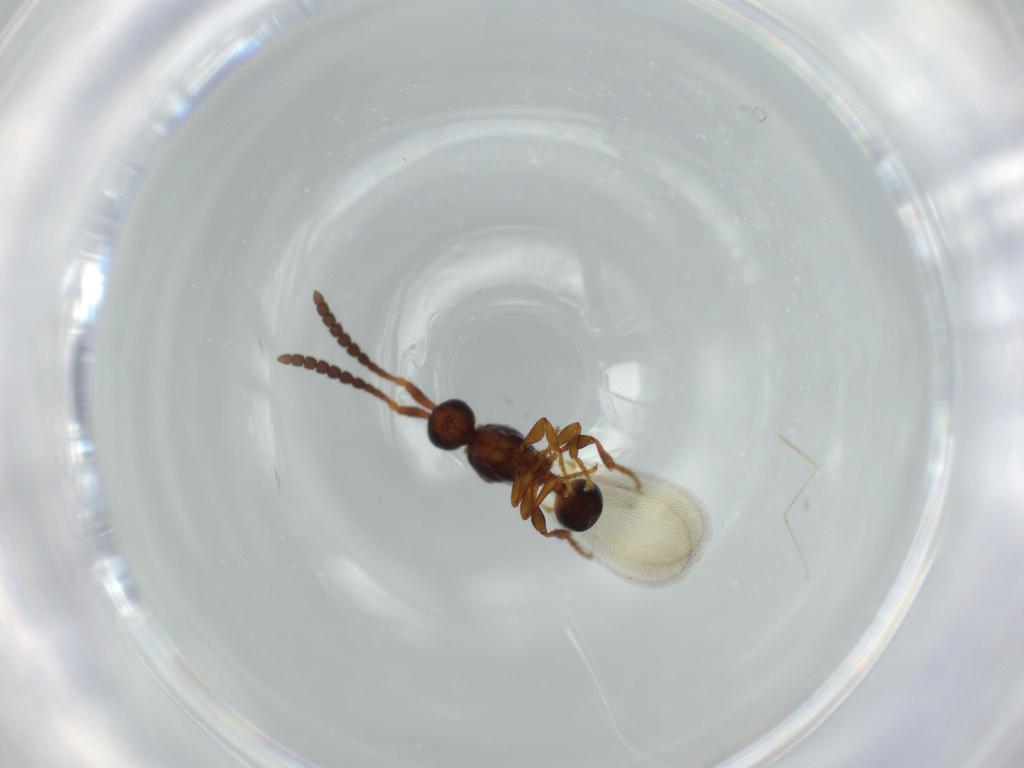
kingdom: Animalia
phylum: Arthropoda
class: Insecta
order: Hymenoptera
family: Diapriidae
